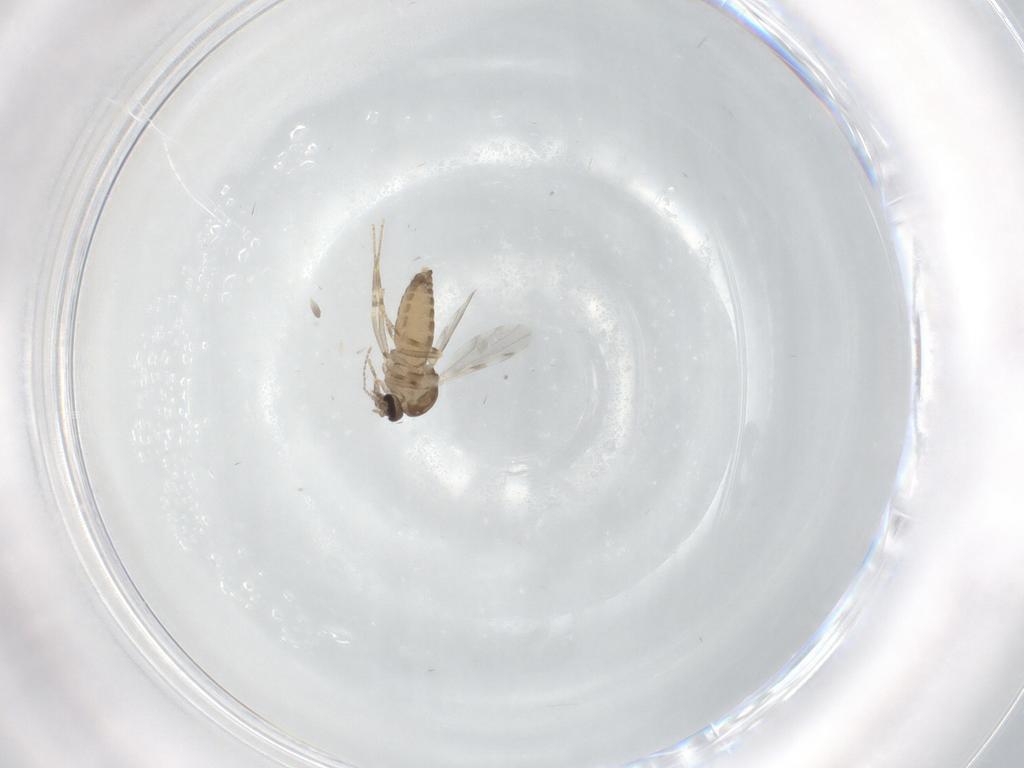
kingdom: Animalia
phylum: Arthropoda
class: Insecta
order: Diptera
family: Ceratopogonidae
